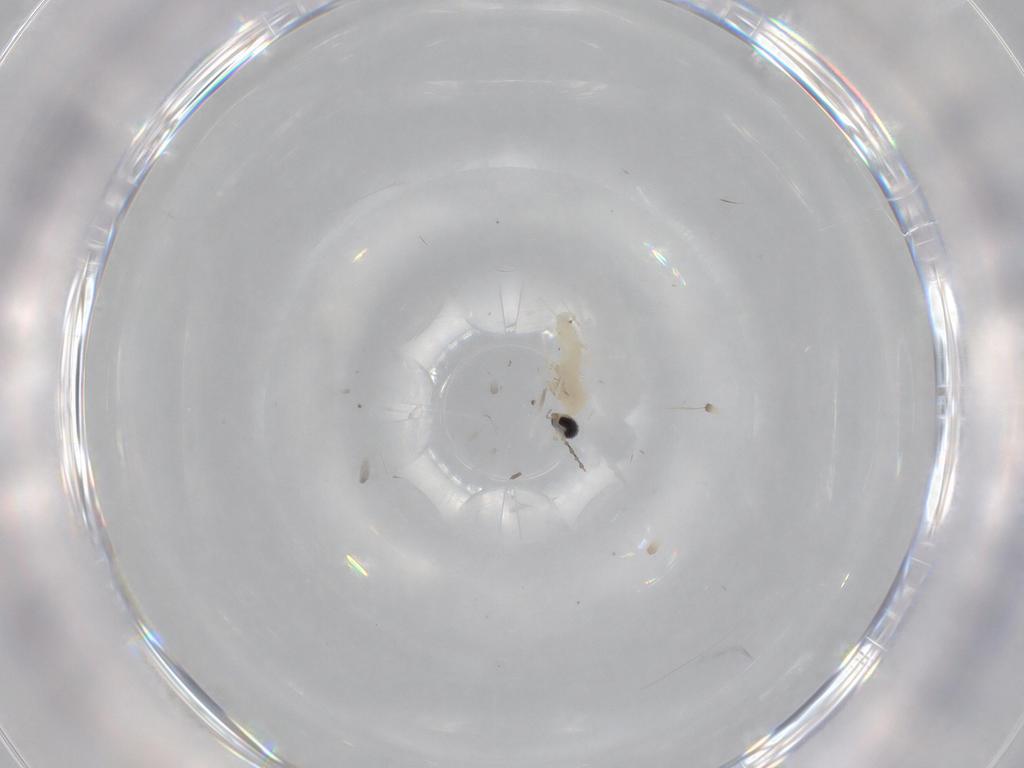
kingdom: Animalia
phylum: Arthropoda
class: Insecta
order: Diptera
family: Cecidomyiidae
